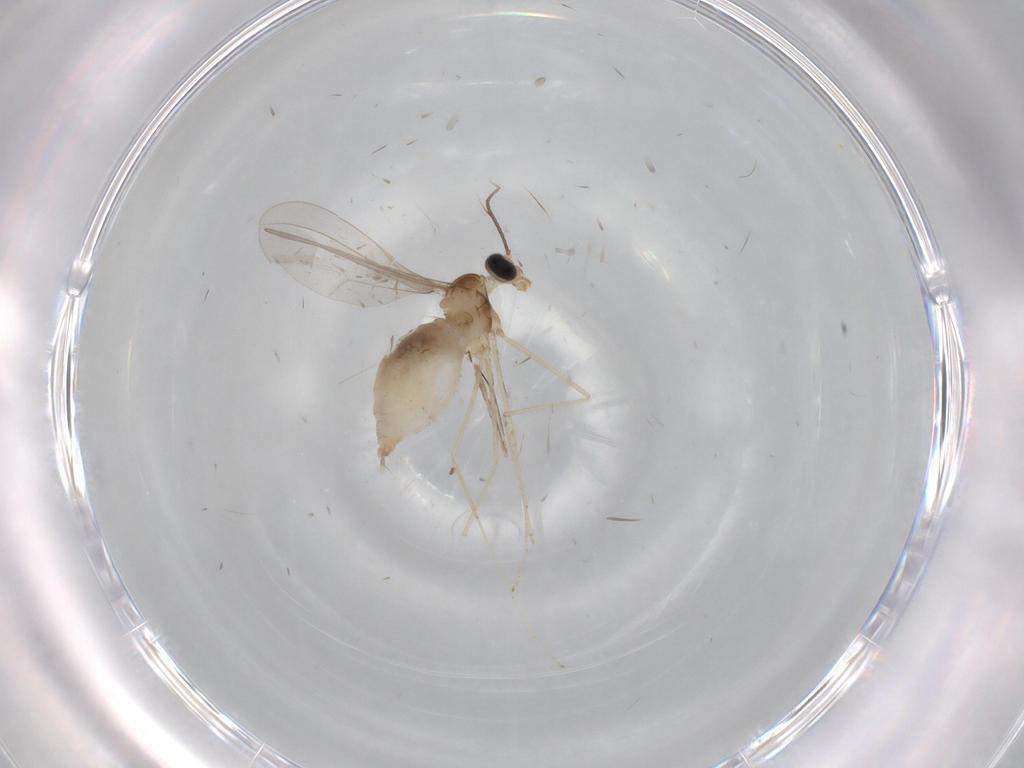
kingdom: Animalia
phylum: Arthropoda
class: Insecta
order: Diptera
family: Cecidomyiidae
